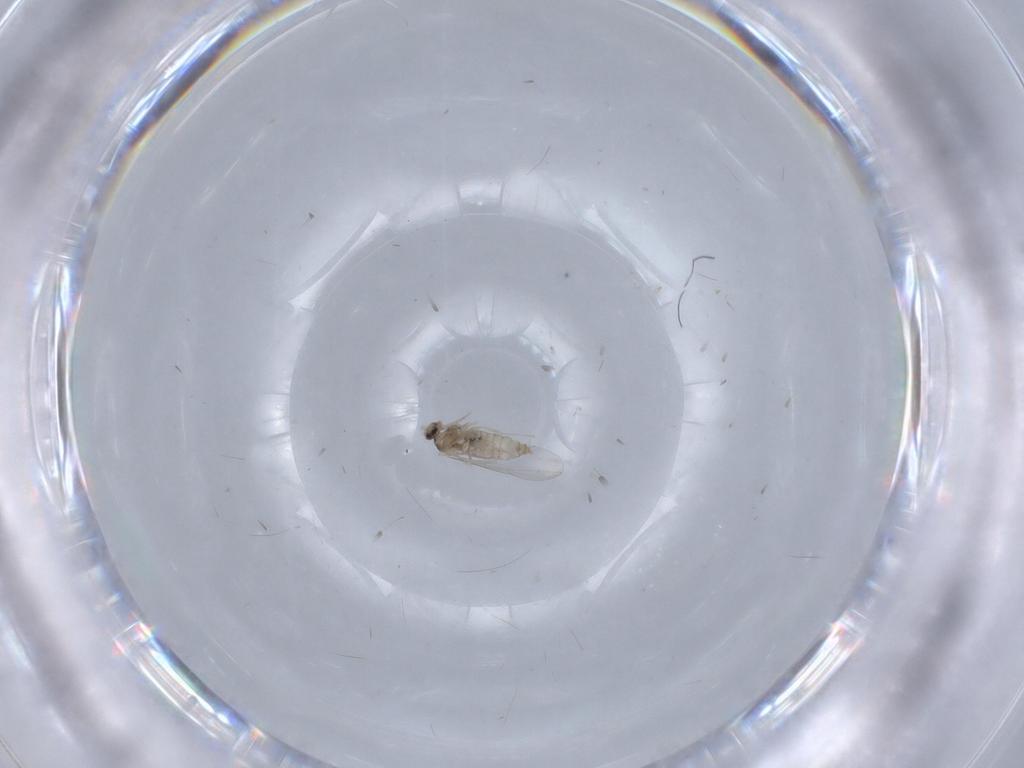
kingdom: Animalia
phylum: Arthropoda
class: Insecta
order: Diptera
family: Cecidomyiidae
